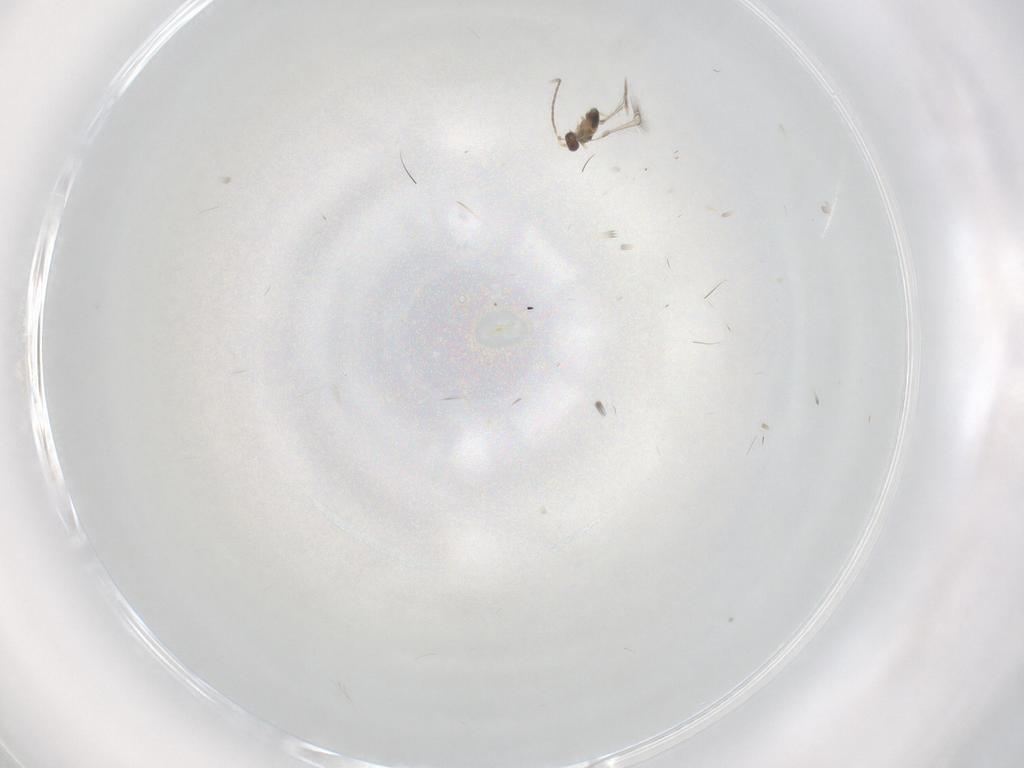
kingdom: Animalia
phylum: Arthropoda
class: Insecta
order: Hymenoptera
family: Mymaridae
